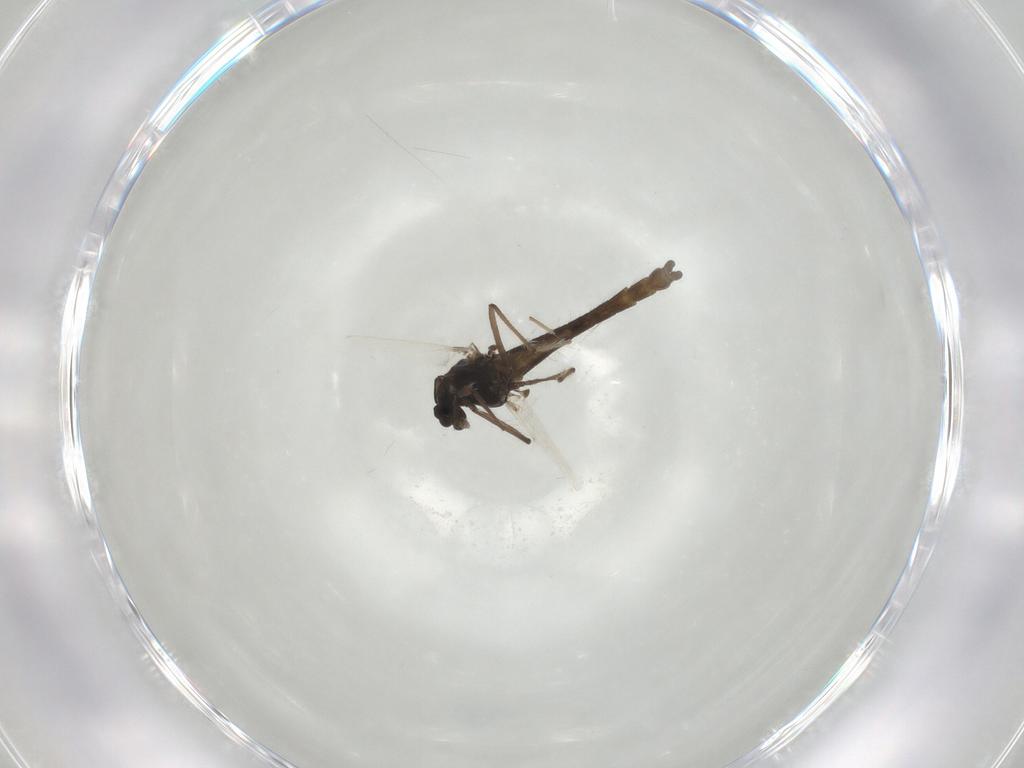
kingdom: Animalia
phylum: Arthropoda
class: Insecta
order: Diptera
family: Chironomidae
